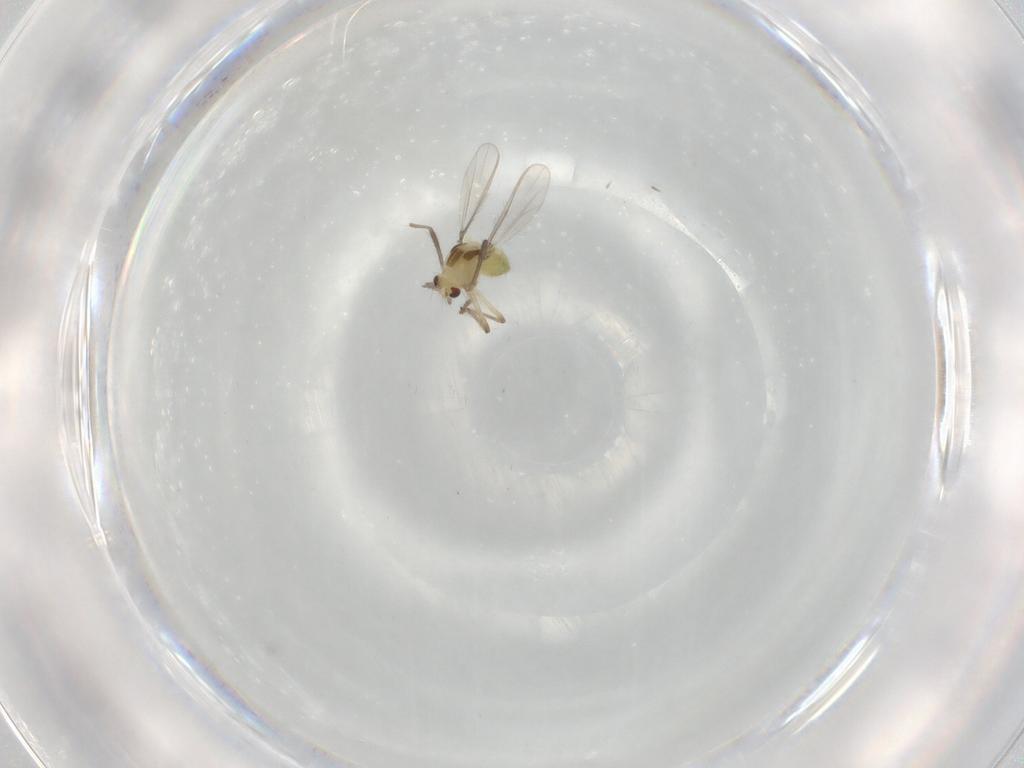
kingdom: Animalia
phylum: Arthropoda
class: Insecta
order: Diptera
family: Chironomidae
